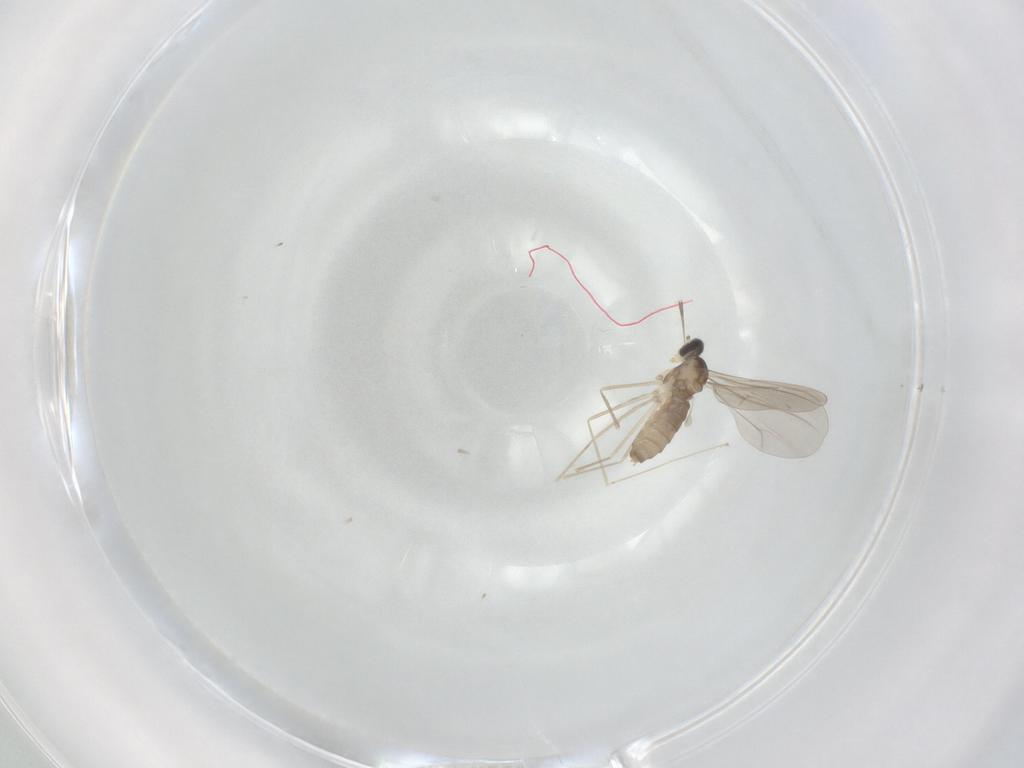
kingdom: Animalia
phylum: Arthropoda
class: Insecta
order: Diptera
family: Cecidomyiidae
